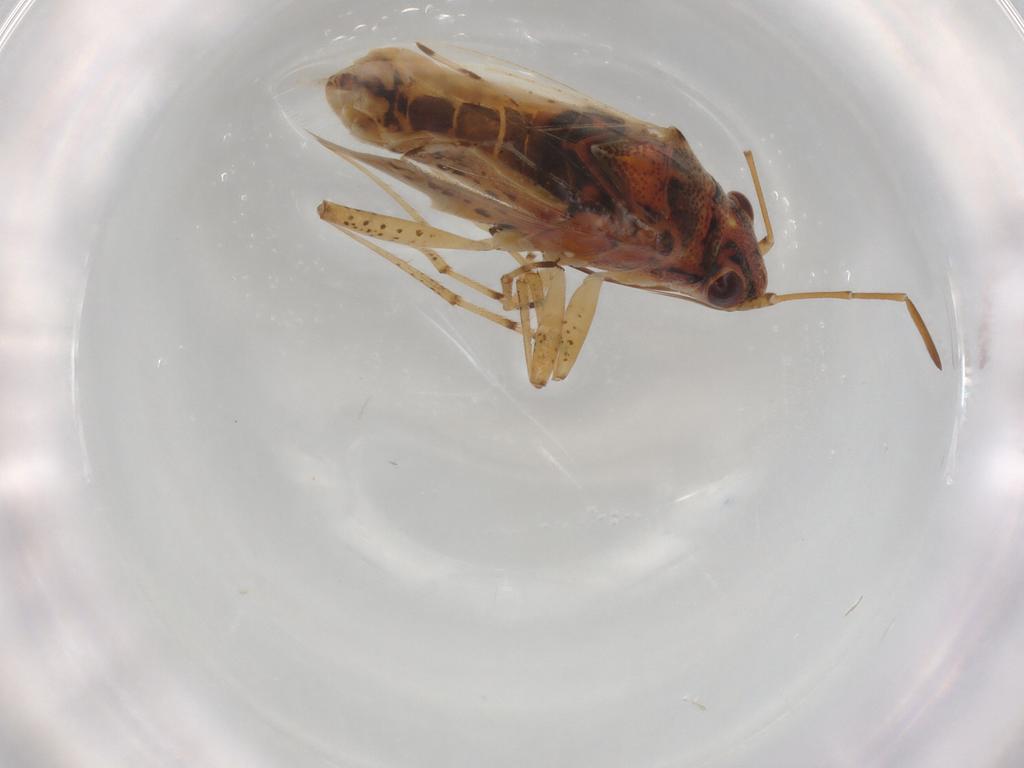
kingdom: Animalia
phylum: Arthropoda
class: Insecta
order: Hemiptera
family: Lygaeidae
